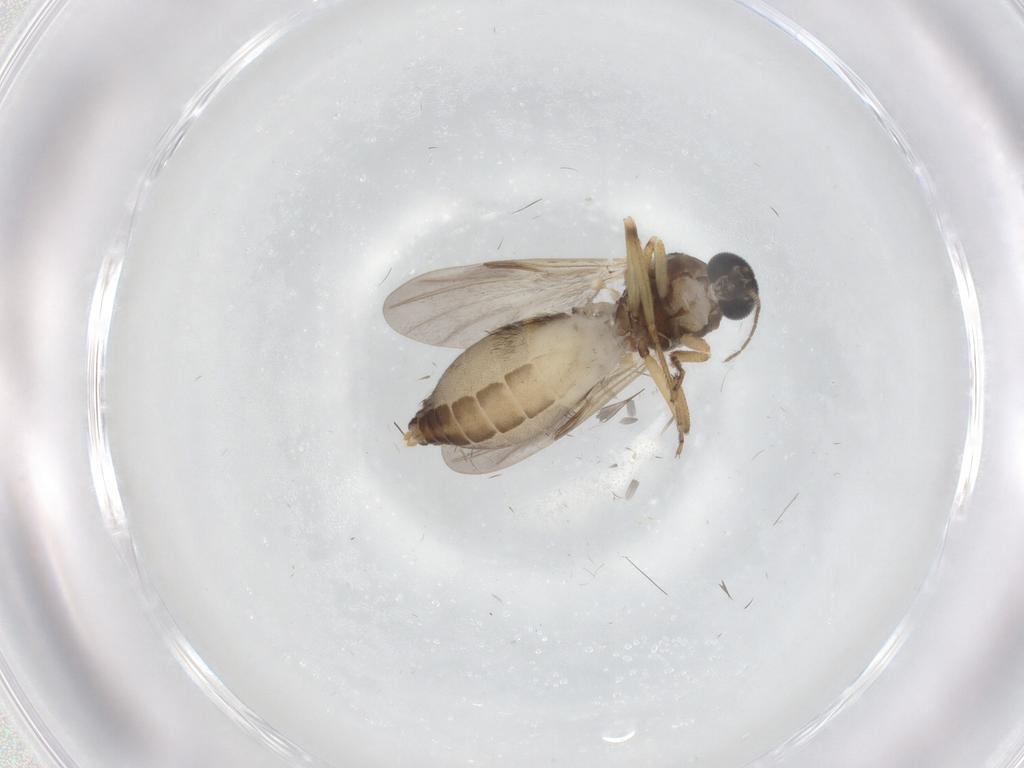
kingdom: Animalia
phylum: Arthropoda
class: Insecta
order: Diptera
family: Ceratopogonidae
